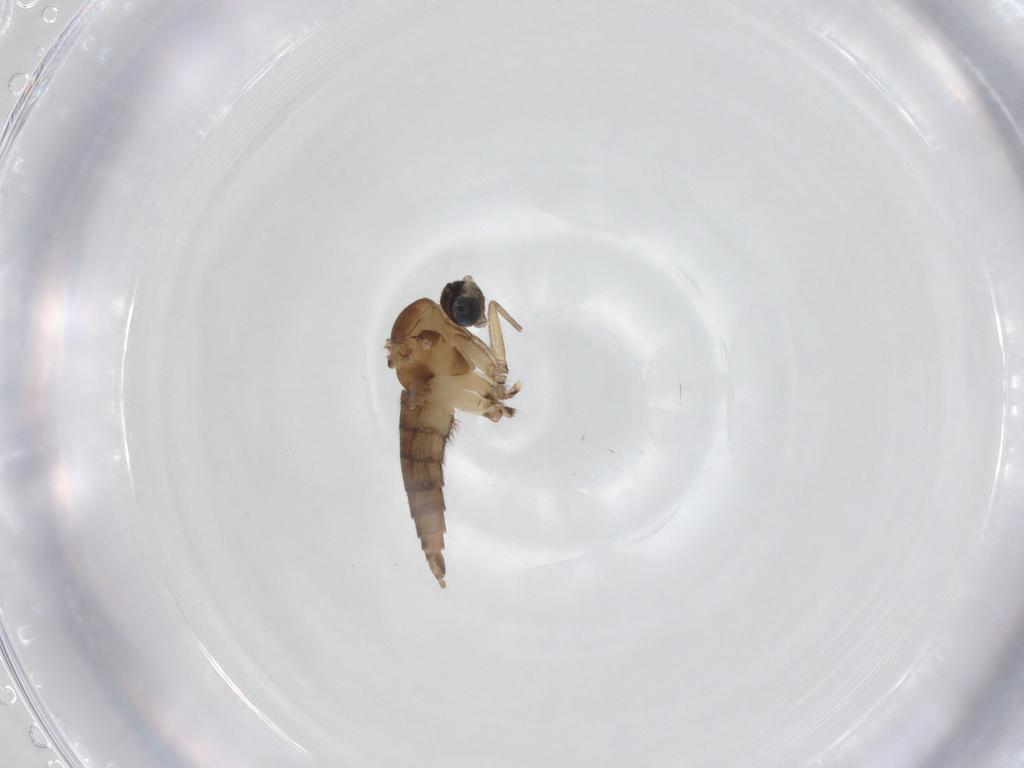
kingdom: Animalia
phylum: Arthropoda
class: Insecta
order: Diptera
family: Sciaridae
